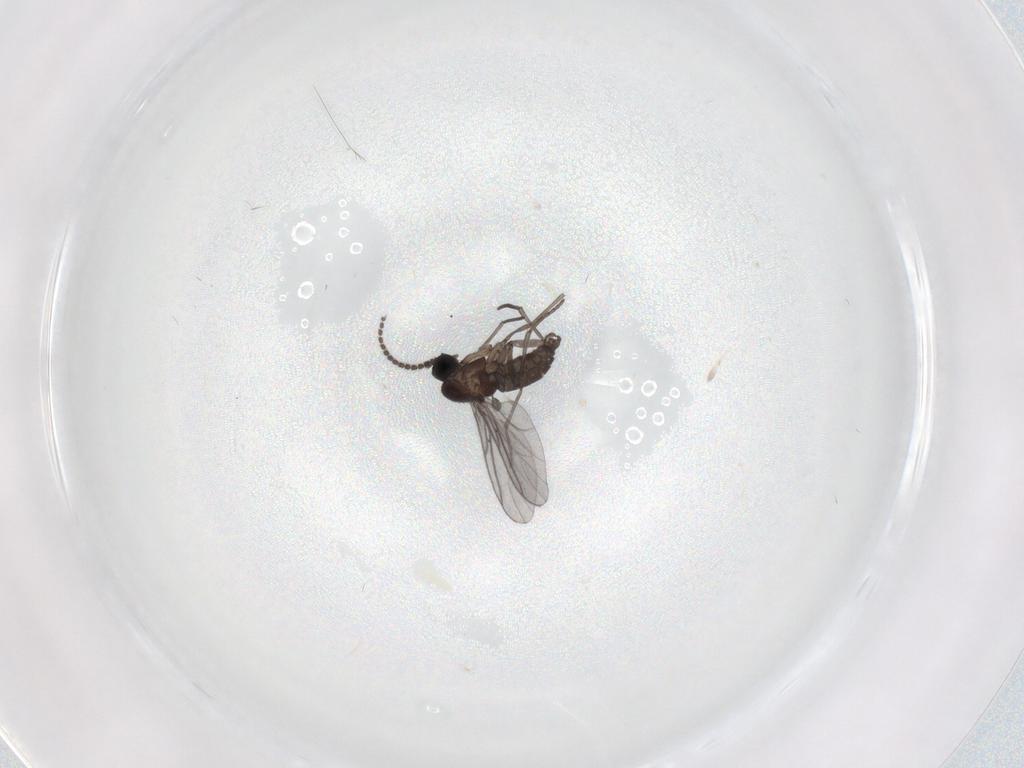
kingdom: Animalia
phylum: Arthropoda
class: Insecta
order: Diptera
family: Sciaridae
